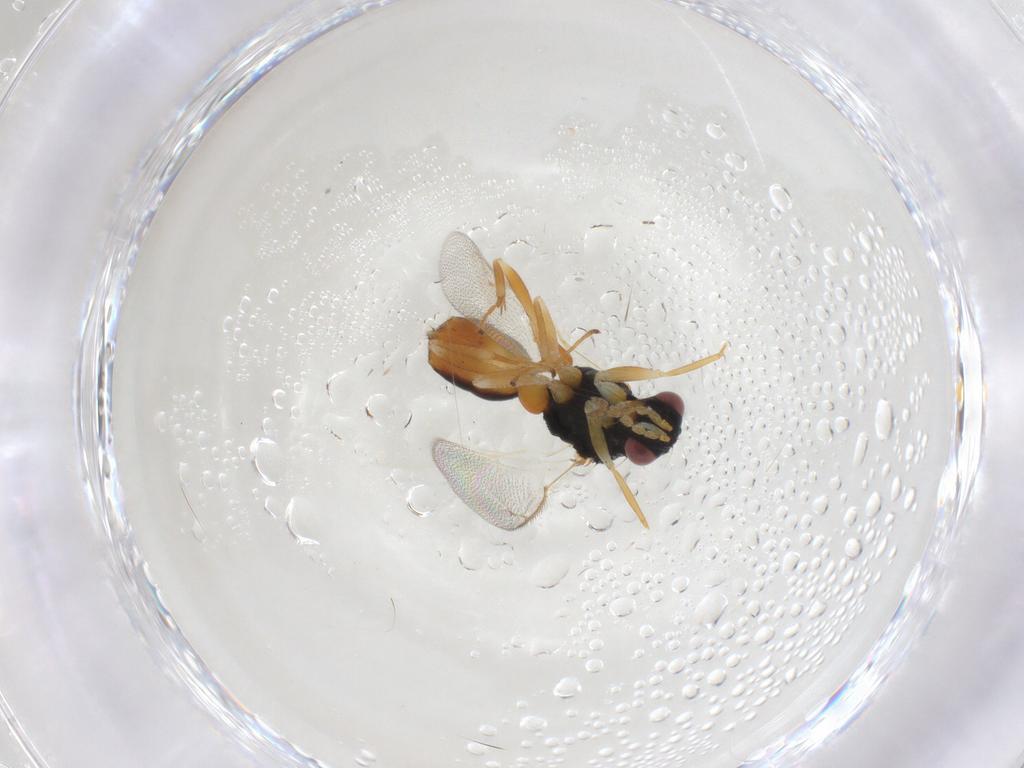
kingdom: Animalia
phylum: Arthropoda
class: Insecta
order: Hymenoptera
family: Eulophidae
